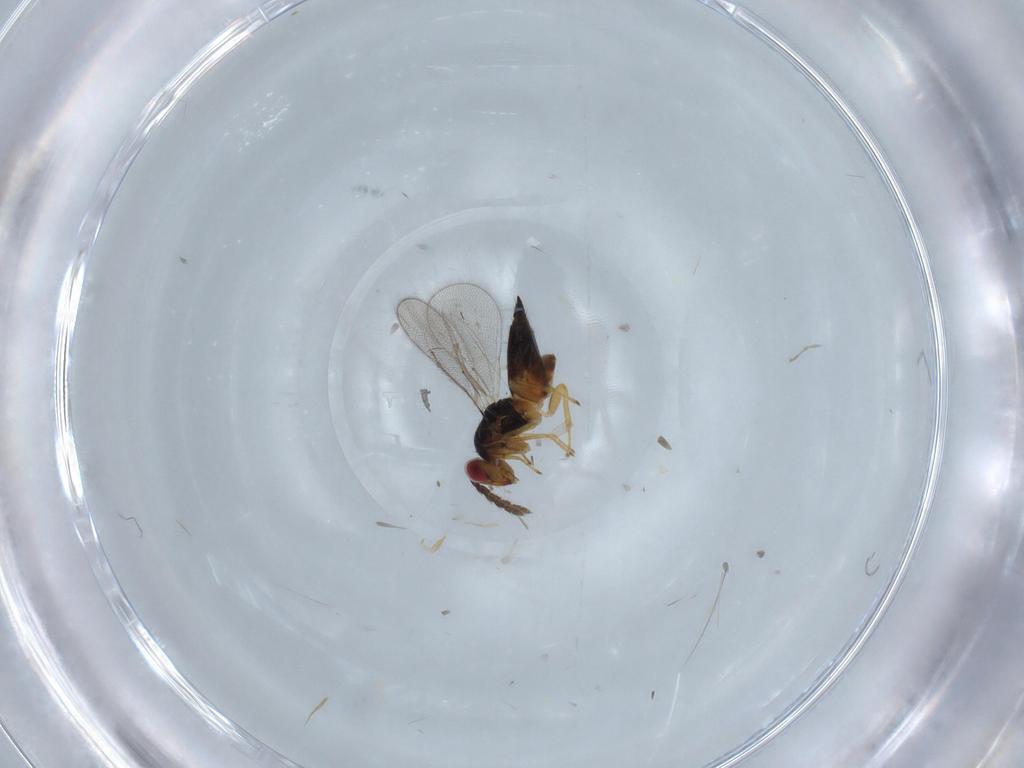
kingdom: Animalia
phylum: Arthropoda
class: Insecta
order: Hymenoptera
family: Eulophidae
